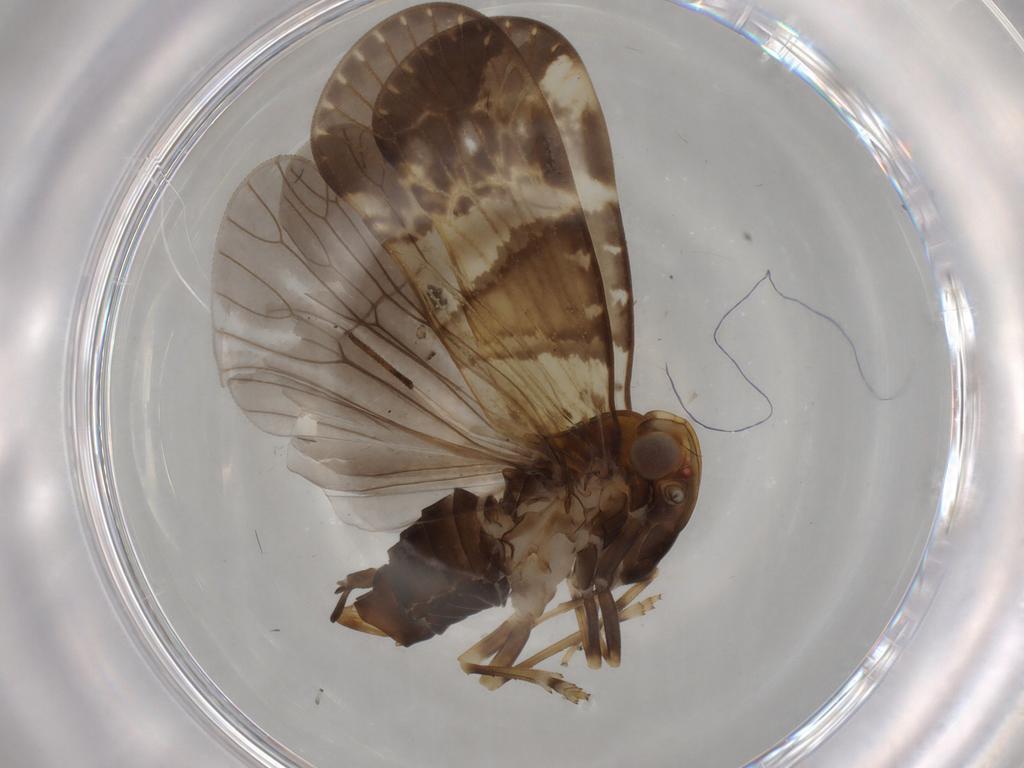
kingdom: Animalia
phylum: Arthropoda
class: Insecta
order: Diptera
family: Cecidomyiidae
